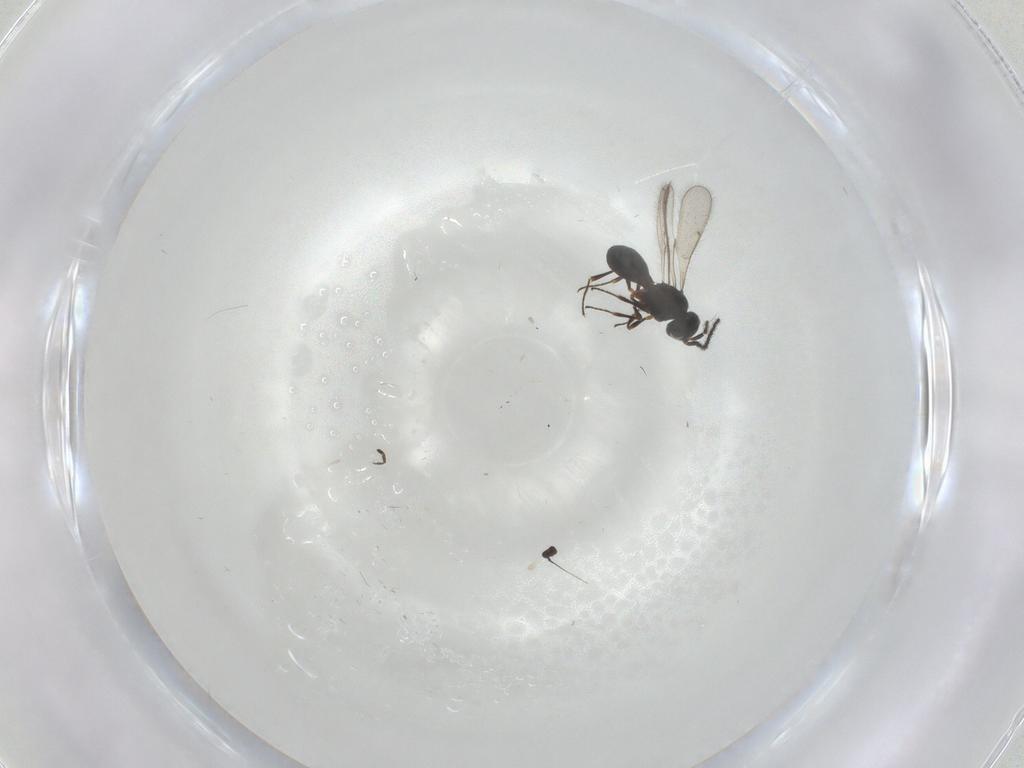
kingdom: Animalia
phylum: Arthropoda
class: Insecta
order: Hymenoptera
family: Scelionidae
